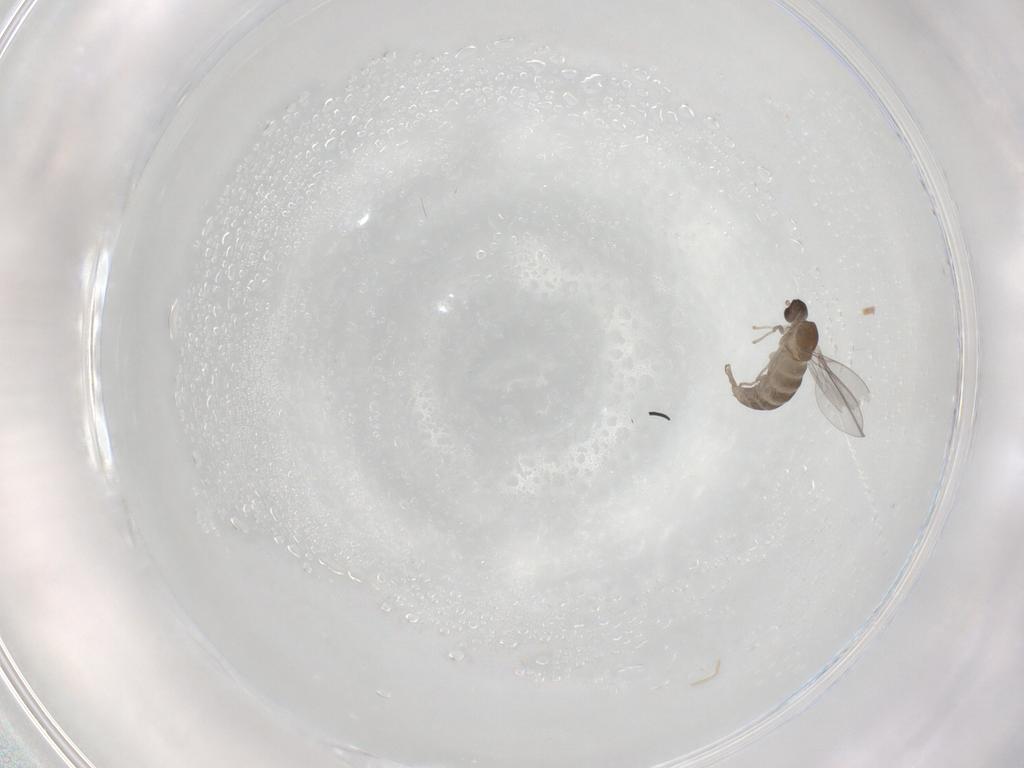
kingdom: Animalia
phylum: Arthropoda
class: Insecta
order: Diptera
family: Cecidomyiidae
